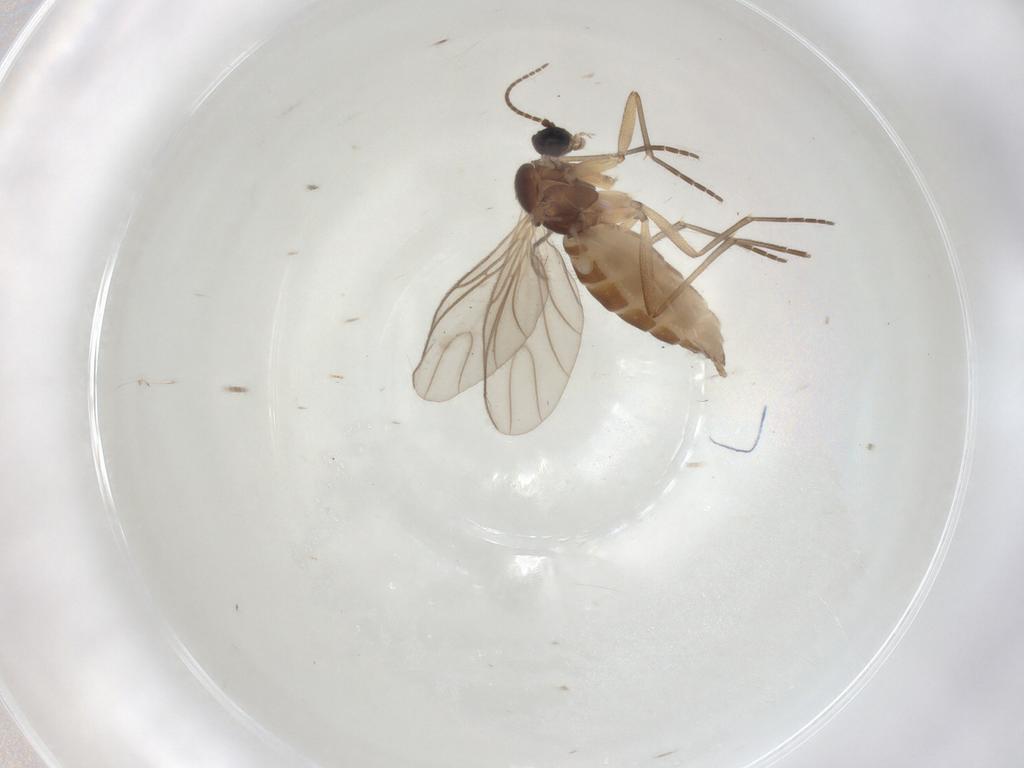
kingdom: Animalia
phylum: Arthropoda
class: Insecta
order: Diptera
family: Sciaridae
